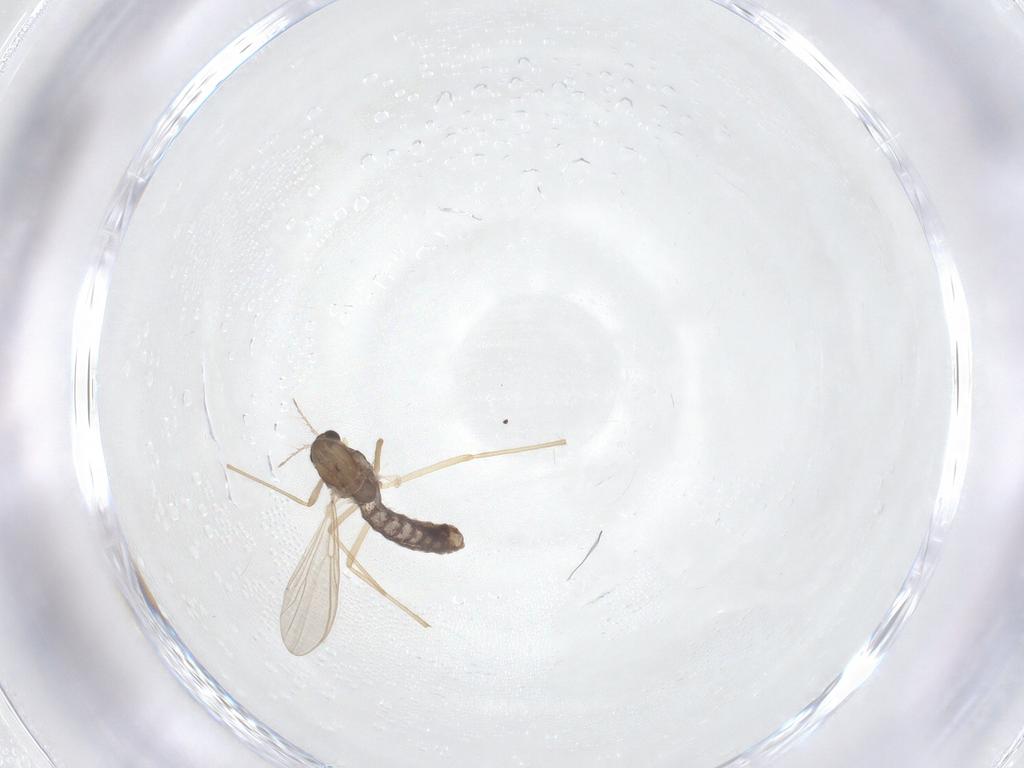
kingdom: Animalia
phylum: Arthropoda
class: Insecta
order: Diptera
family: Chironomidae
